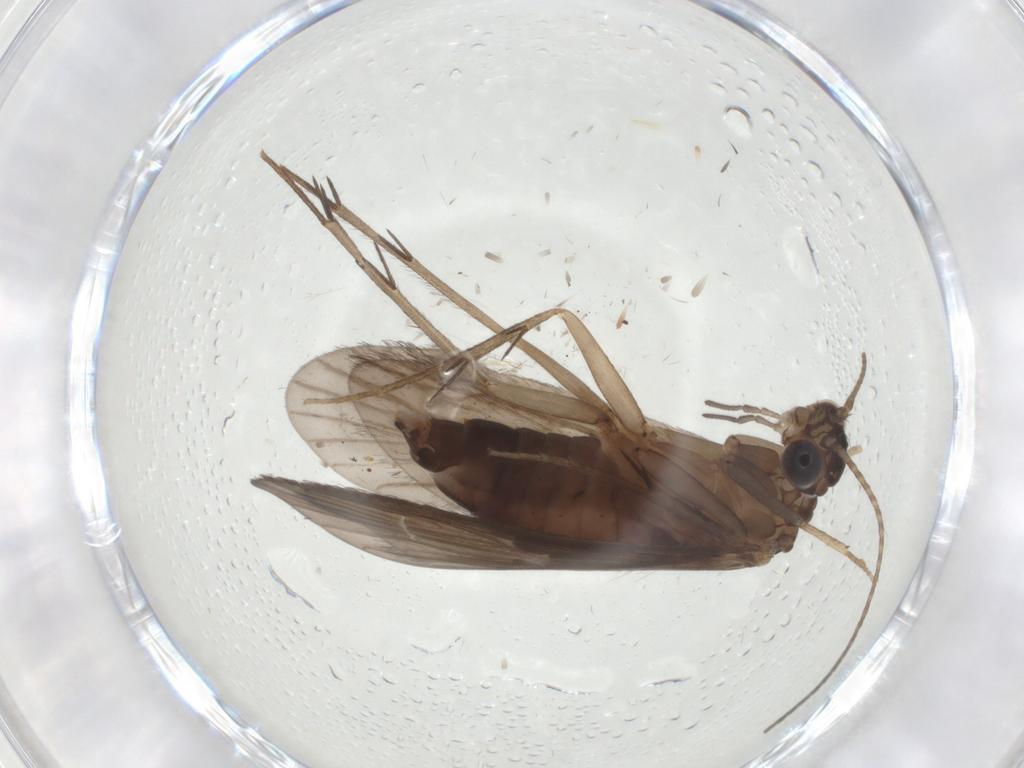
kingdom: Animalia
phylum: Arthropoda
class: Insecta
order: Trichoptera
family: Philopotamidae
